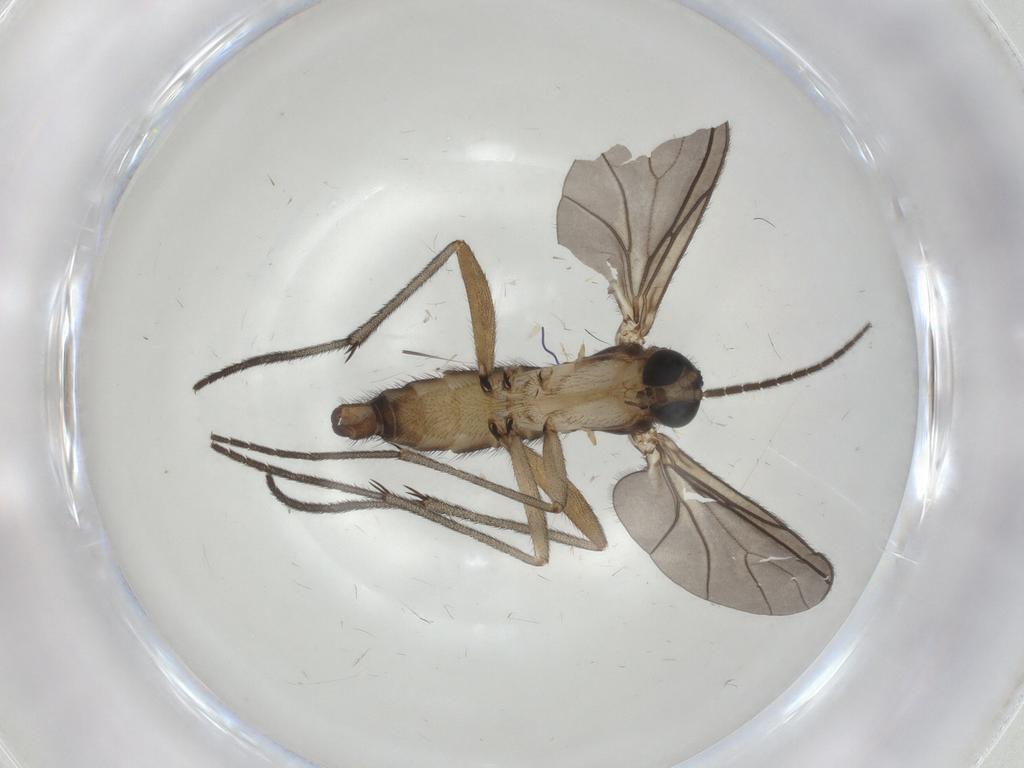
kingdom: Animalia
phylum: Arthropoda
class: Insecta
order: Diptera
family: Sciaridae
